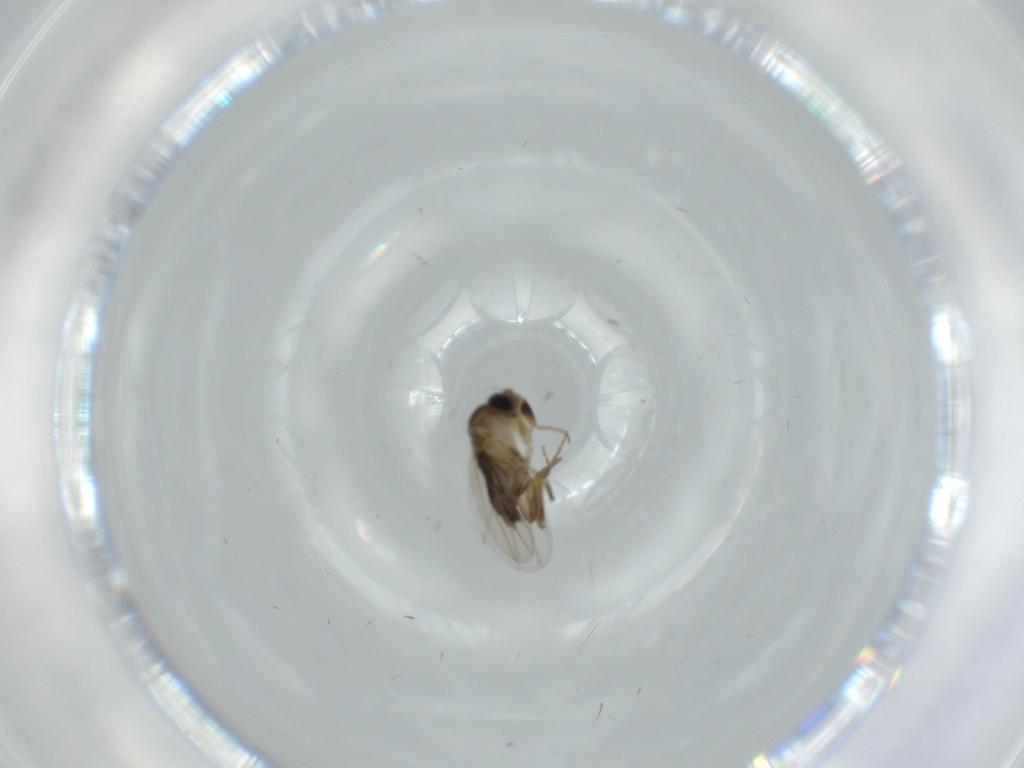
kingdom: Animalia
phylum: Arthropoda
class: Insecta
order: Diptera
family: Phoridae
